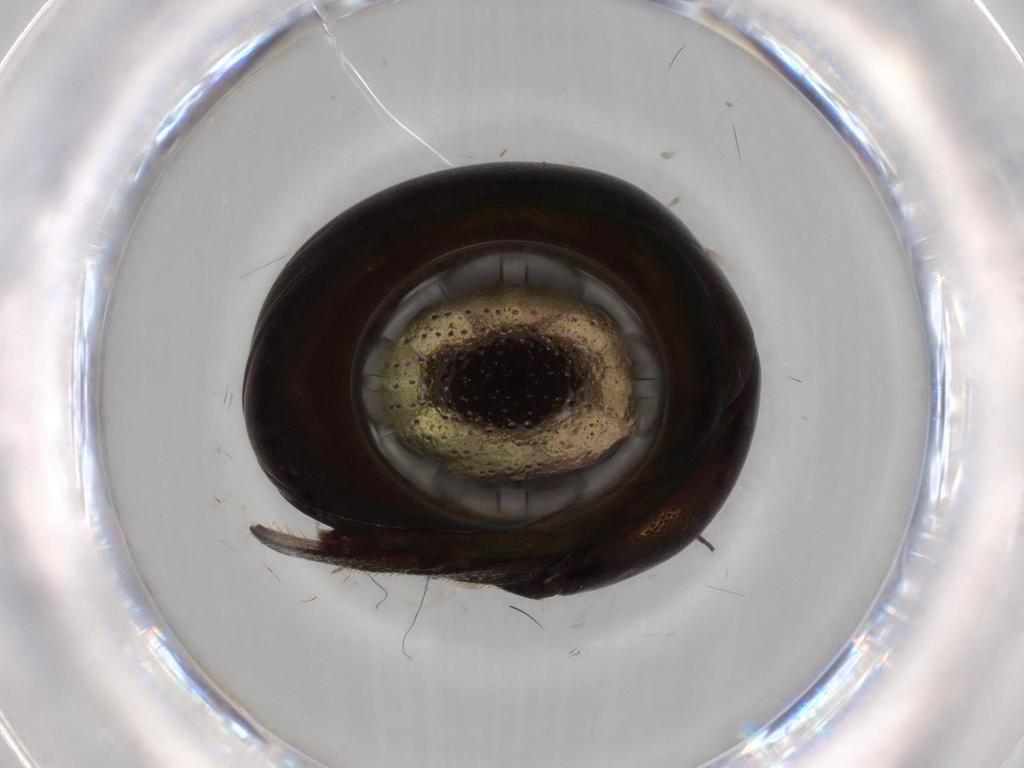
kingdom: Animalia
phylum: Arthropoda
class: Insecta
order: Coleoptera
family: Hybosoridae
